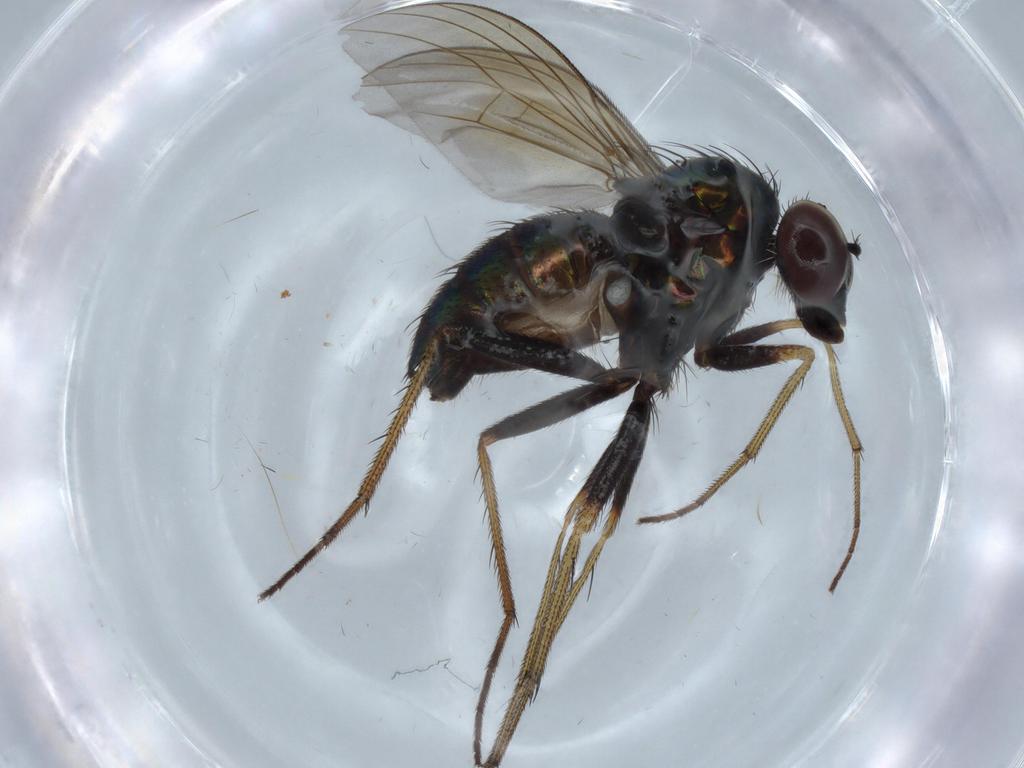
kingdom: Animalia
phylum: Arthropoda
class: Insecta
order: Diptera
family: Dolichopodidae
